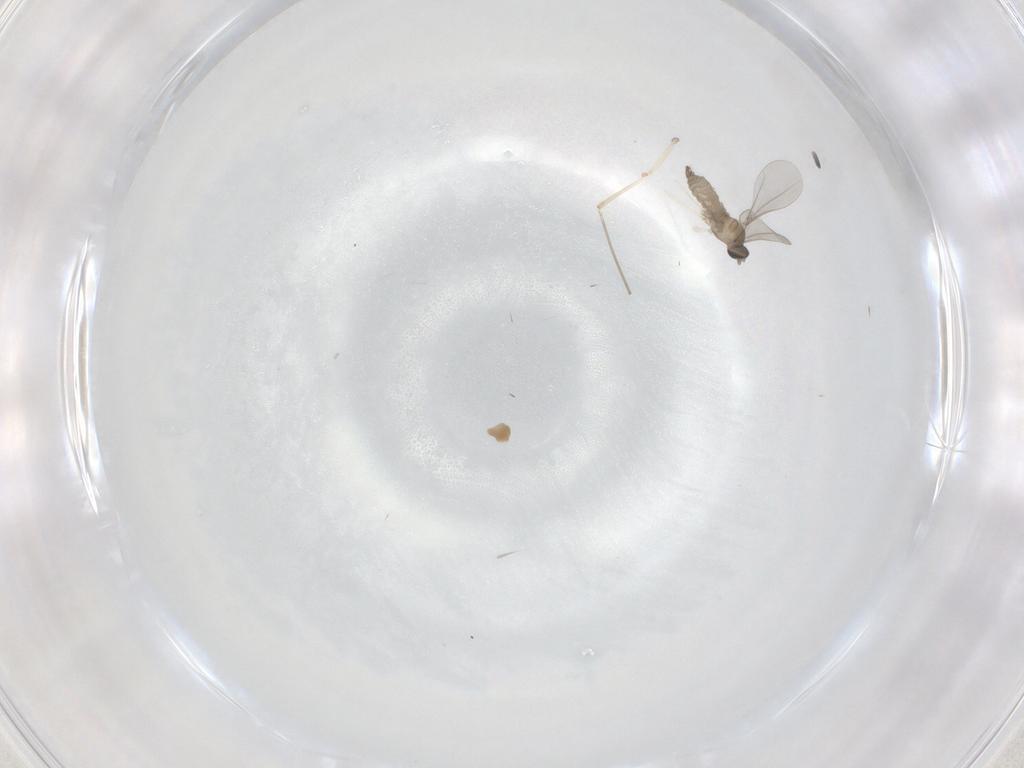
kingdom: Animalia
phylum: Arthropoda
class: Insecta
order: Diptera
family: Cecidomyiidae
